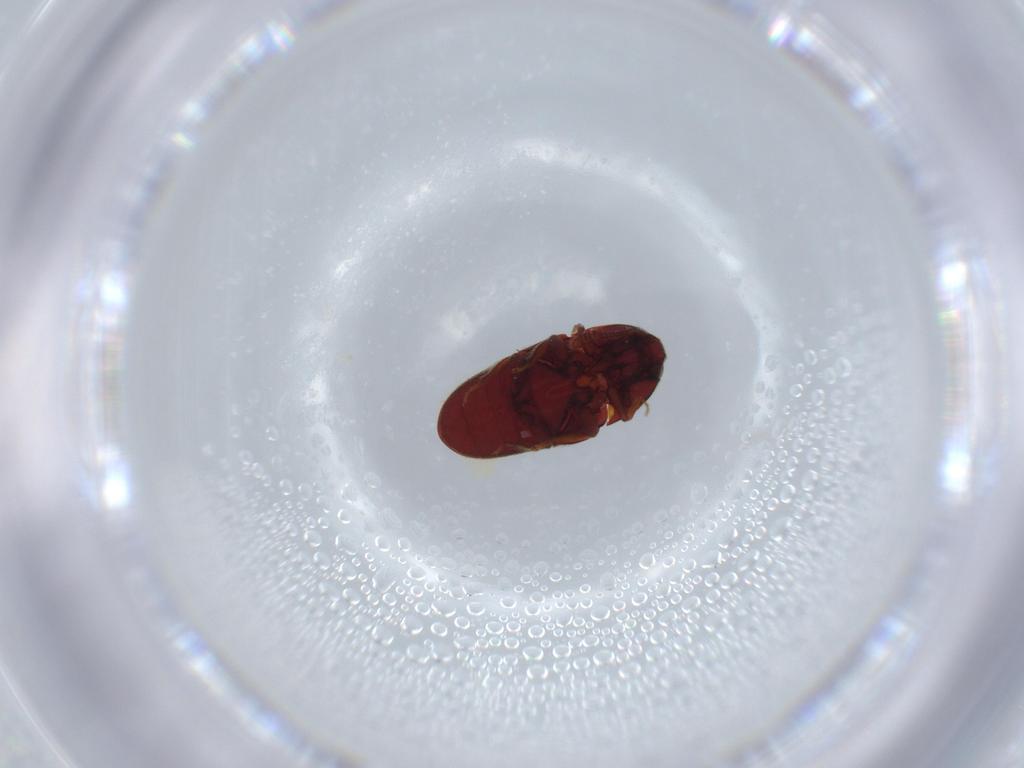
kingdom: Animalia
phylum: Arthropoda
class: Insecta
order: Coleoptera
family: Throscidae
